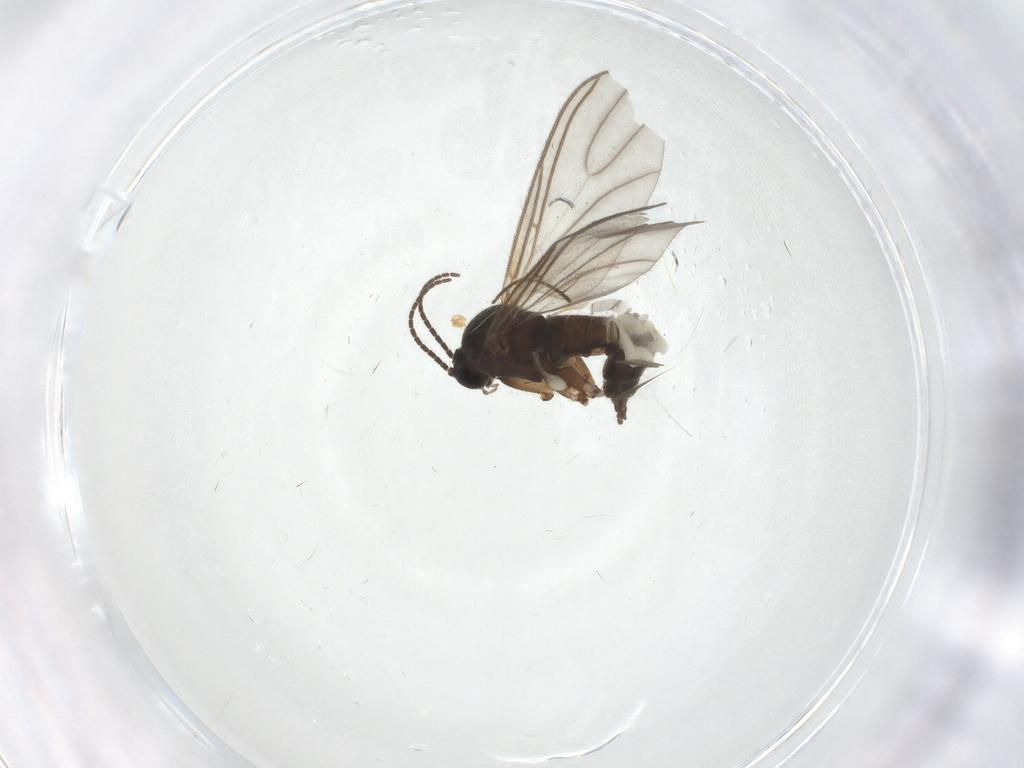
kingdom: Animalia
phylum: Arthropoda
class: Insecta
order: Diptera
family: Sciaridae
